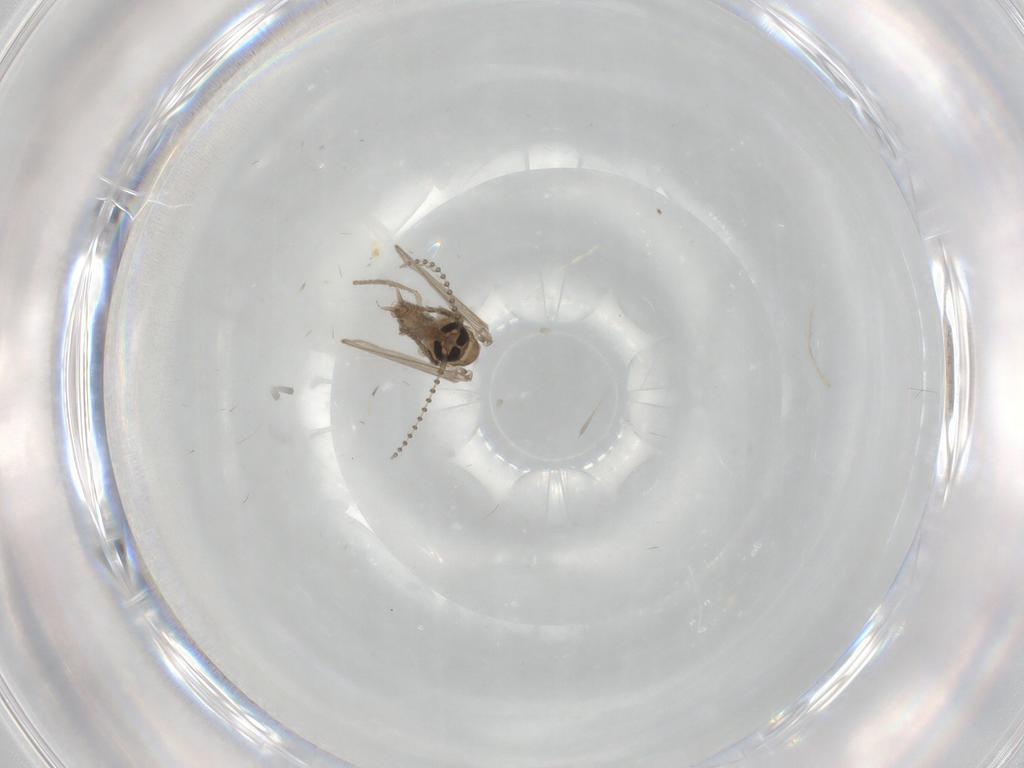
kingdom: Animalia
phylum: Arthropoda
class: Insecta
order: Diptera
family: Psychodidae
